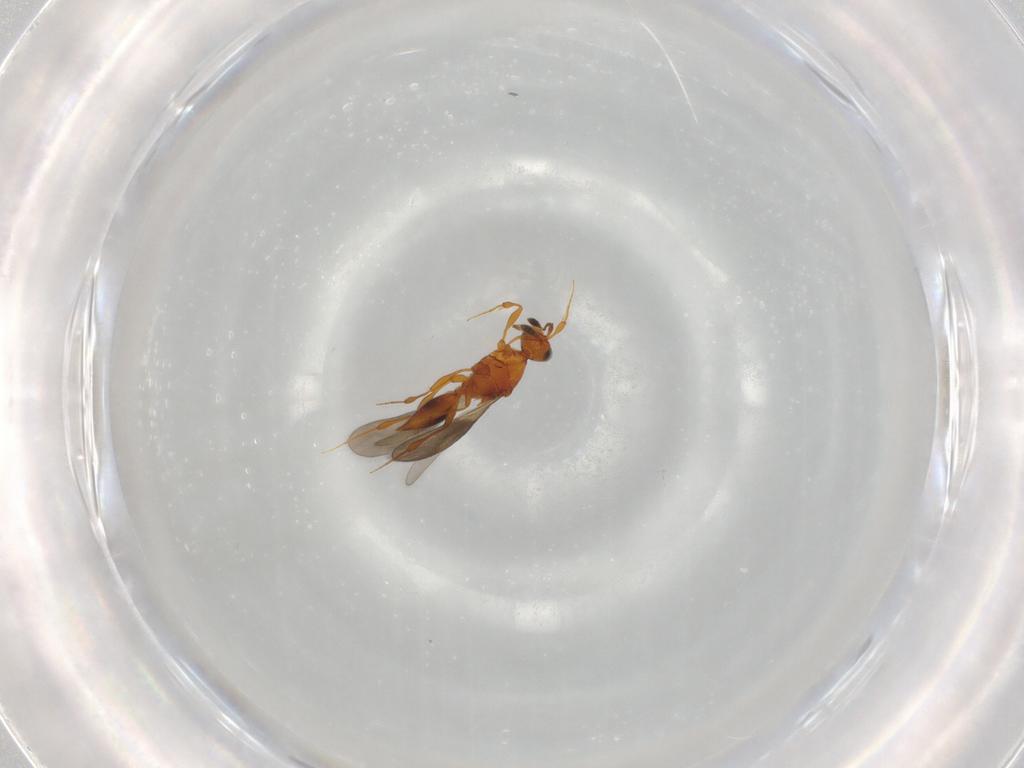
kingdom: Animalia
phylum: Arthropoda
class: Insecta
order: Hymenoptera
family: Platygastridae
